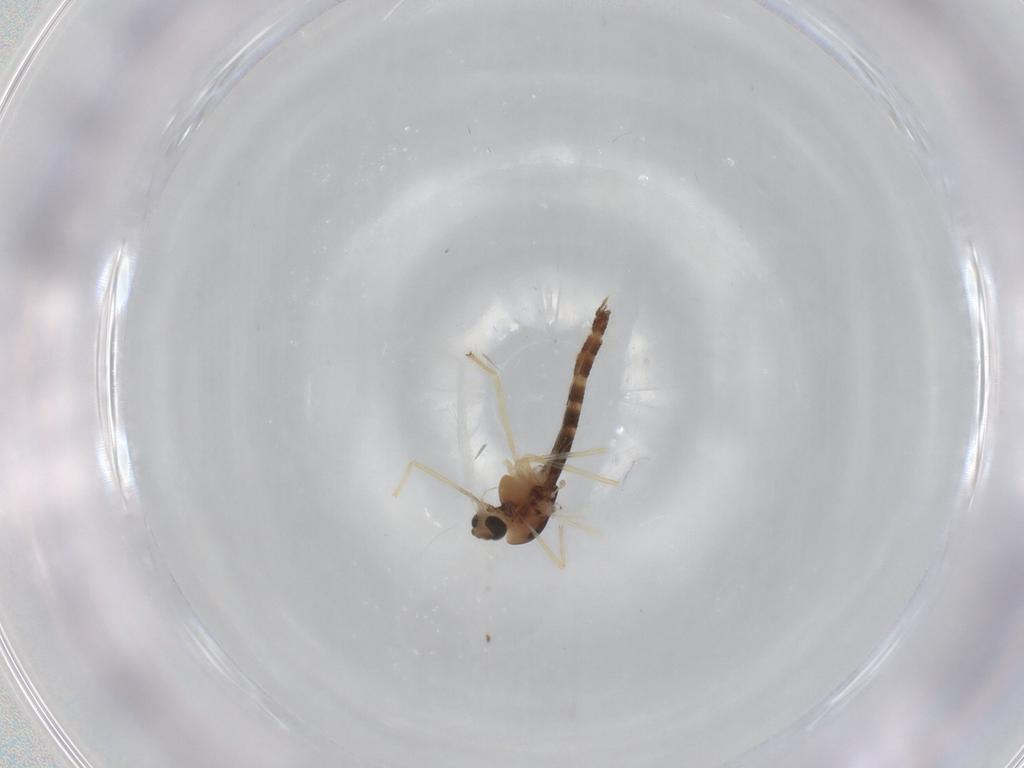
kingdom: Animalia
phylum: Arthropoda
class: Insecta
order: Diptera
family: Chironomidae
